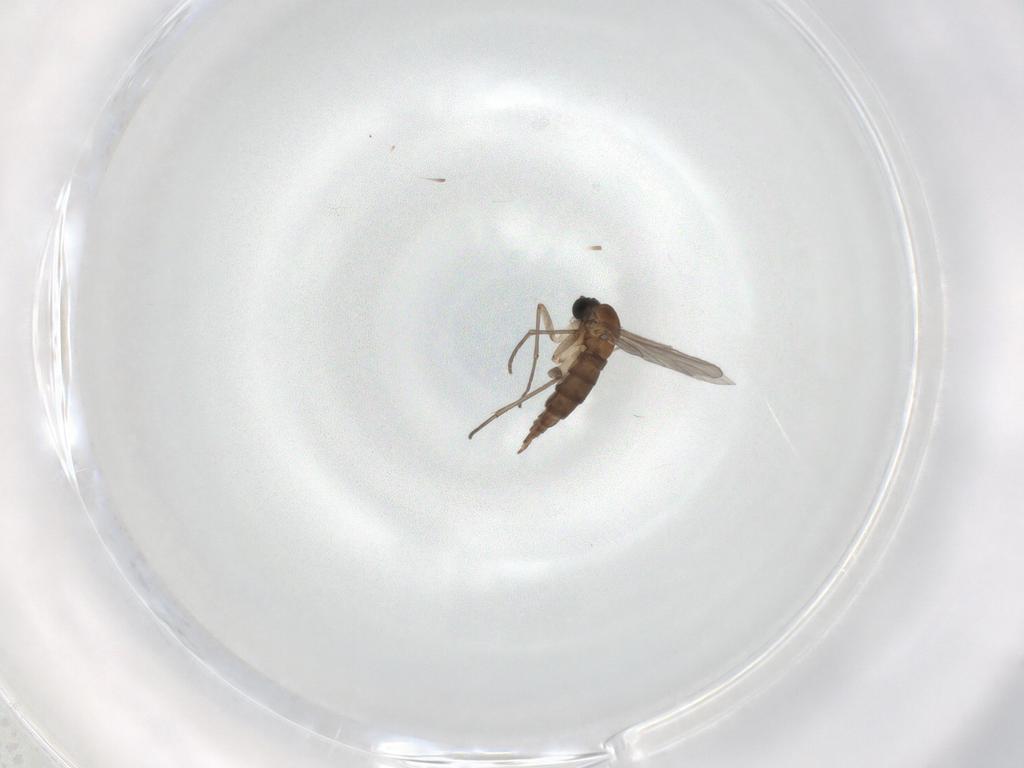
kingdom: Animalia
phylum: Arthropoda
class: Insecta
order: Diptera
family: Sciaridae
